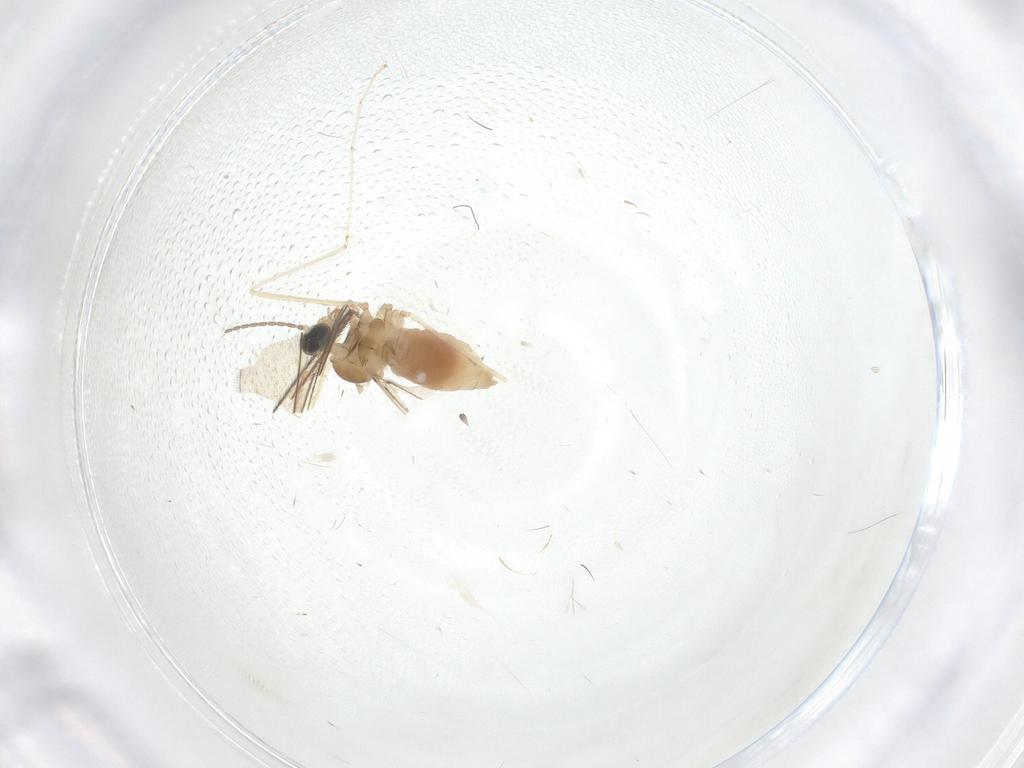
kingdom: Animalia
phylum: Arthropoda
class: Insecta
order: Diptera
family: Cecidomyiidae
